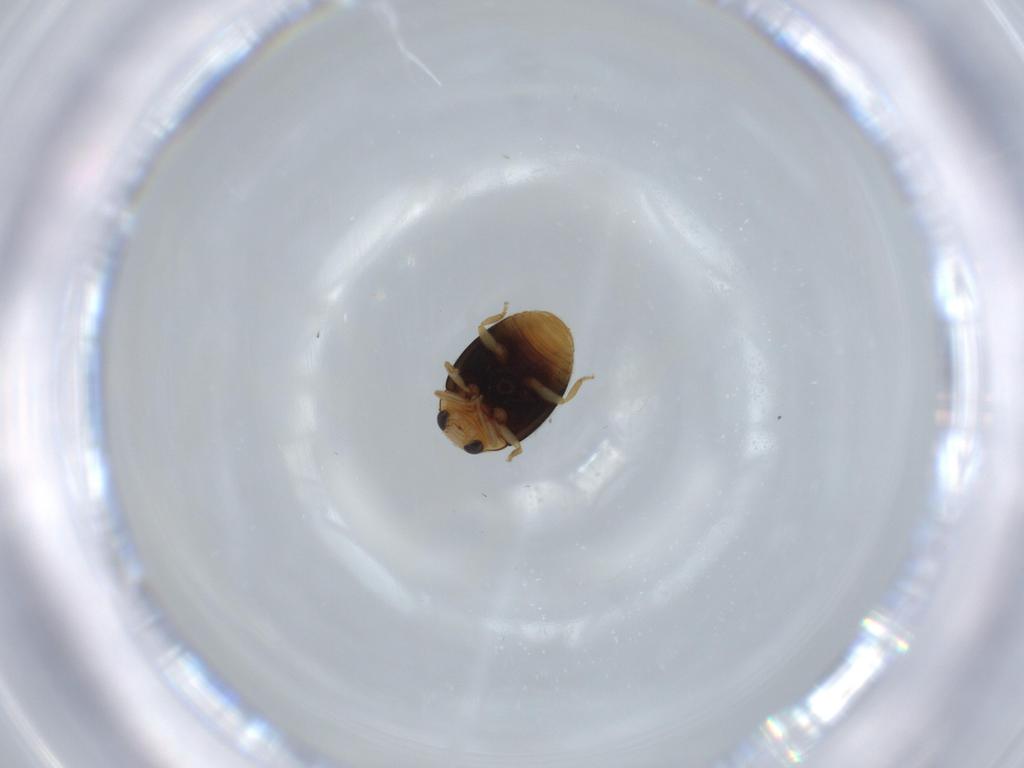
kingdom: Animalia
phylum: Arthropoda
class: Insecta
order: Coleoptera
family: Coccinellidae
